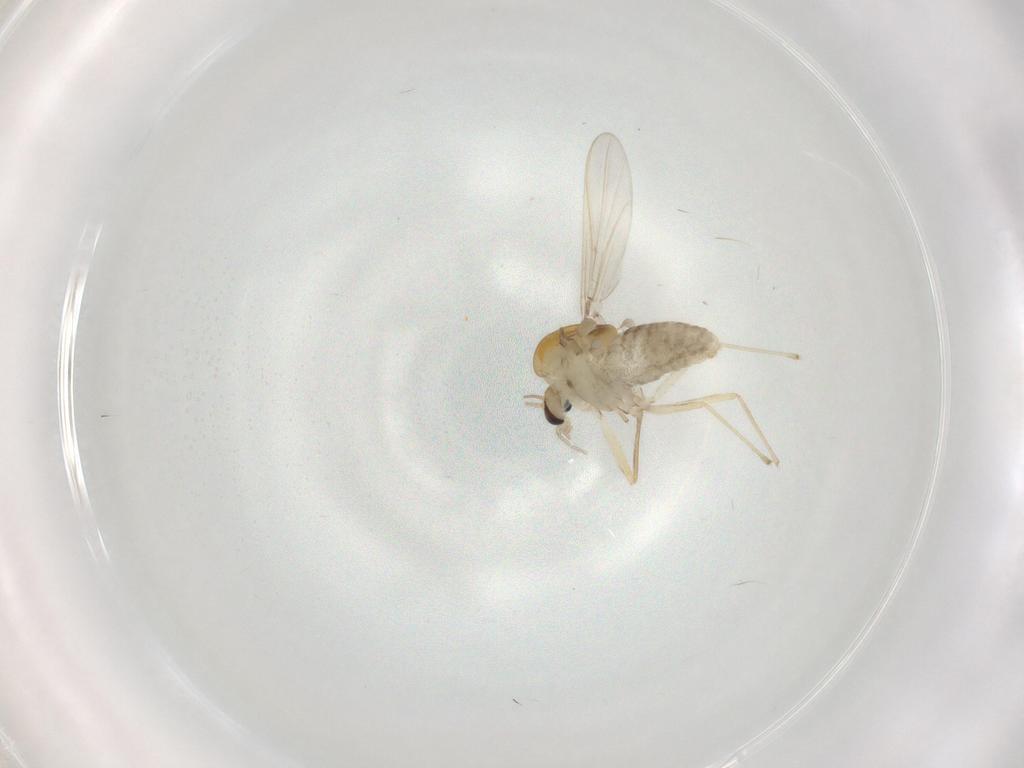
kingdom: Animalia
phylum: Arthropoda
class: Insecta
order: Diptera
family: Chironomidae
